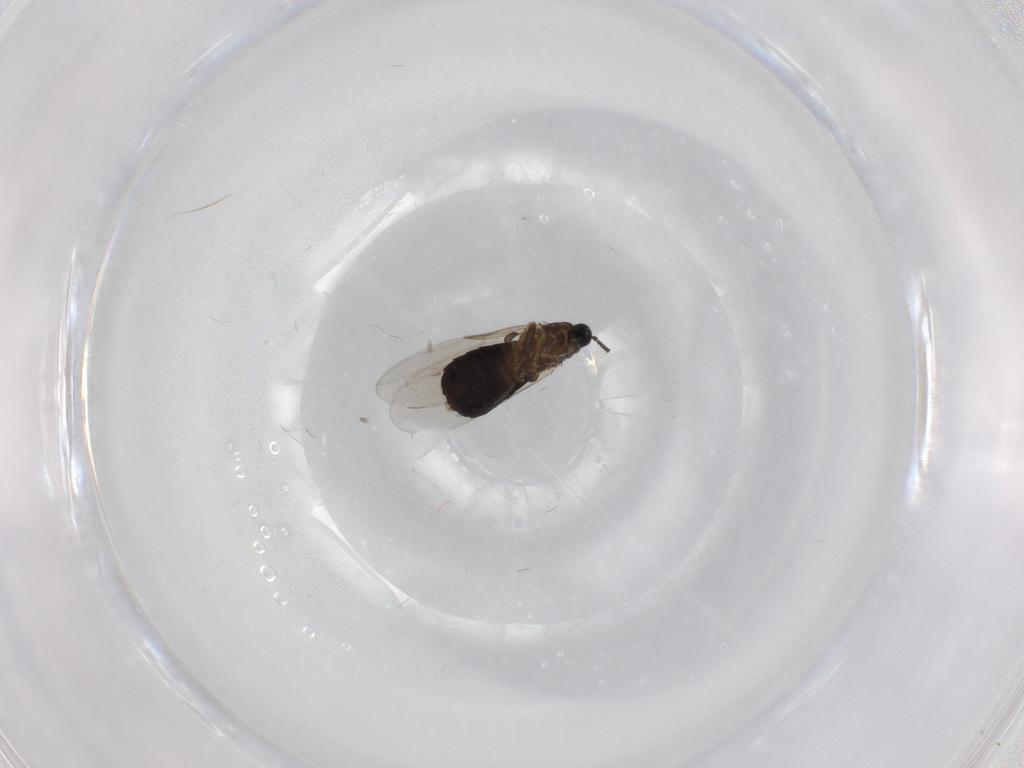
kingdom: Animalia
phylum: Arthropoda
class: Insecta
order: Diptera
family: Scatopsidae
